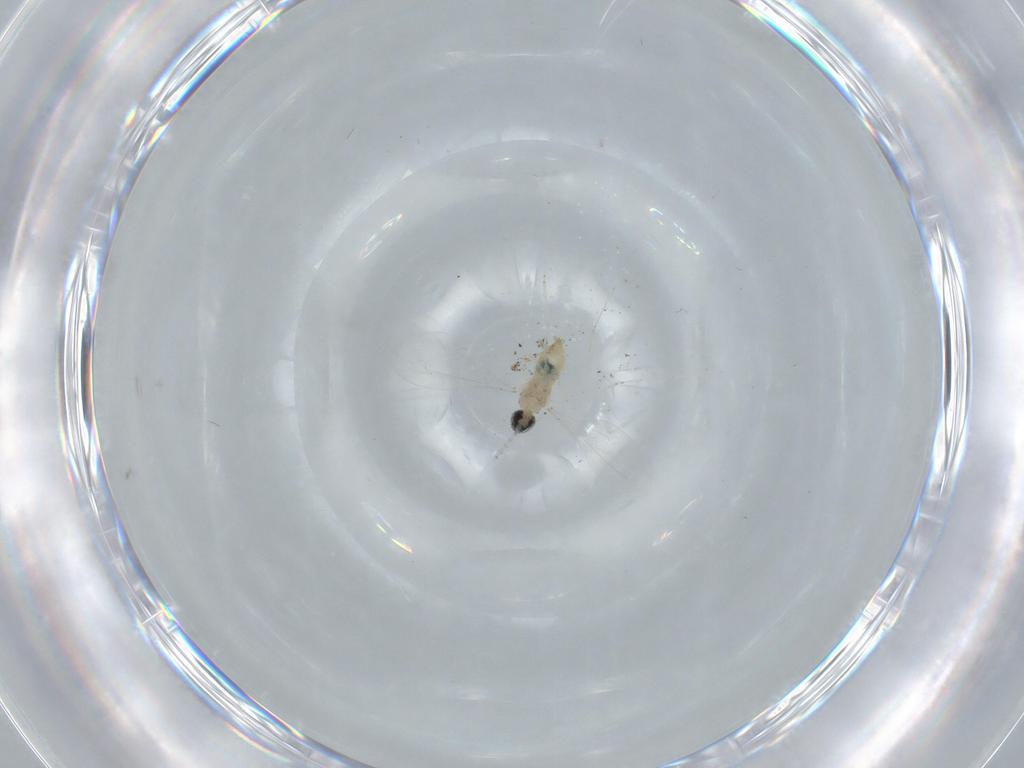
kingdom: Animalia
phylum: Arthropoda
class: Insecta
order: Diptera
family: Cecidomyiidae
